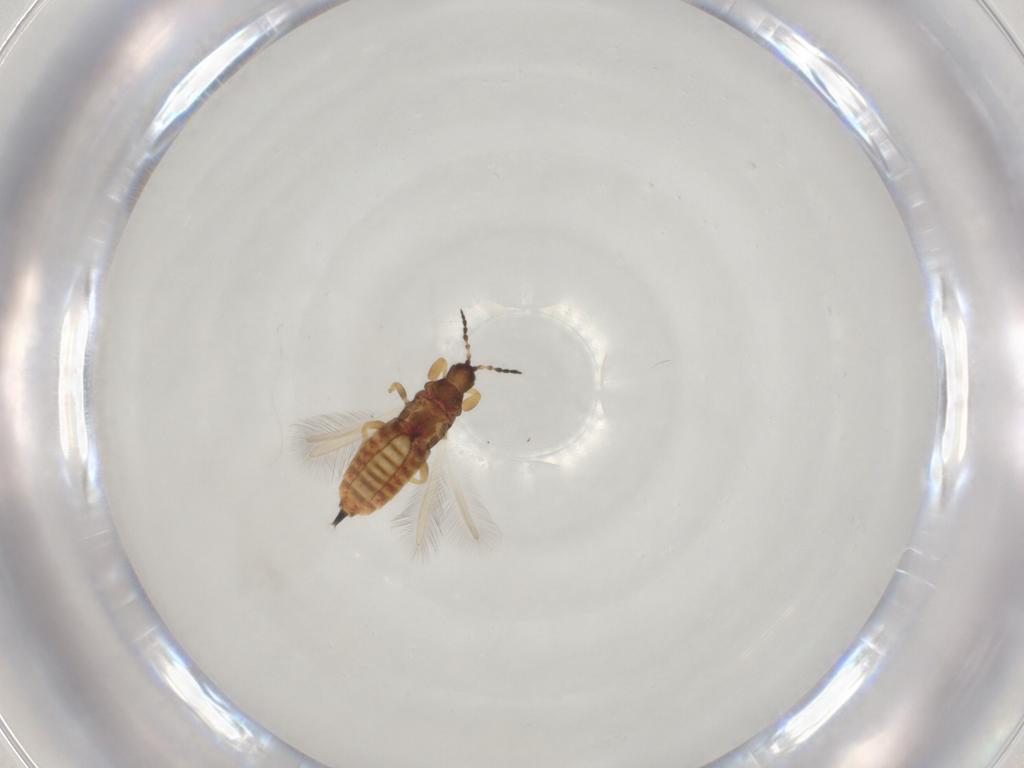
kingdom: Animalia
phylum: Arthropoda
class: Insecta
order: Thysanoptera
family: Phlaeothripidae
